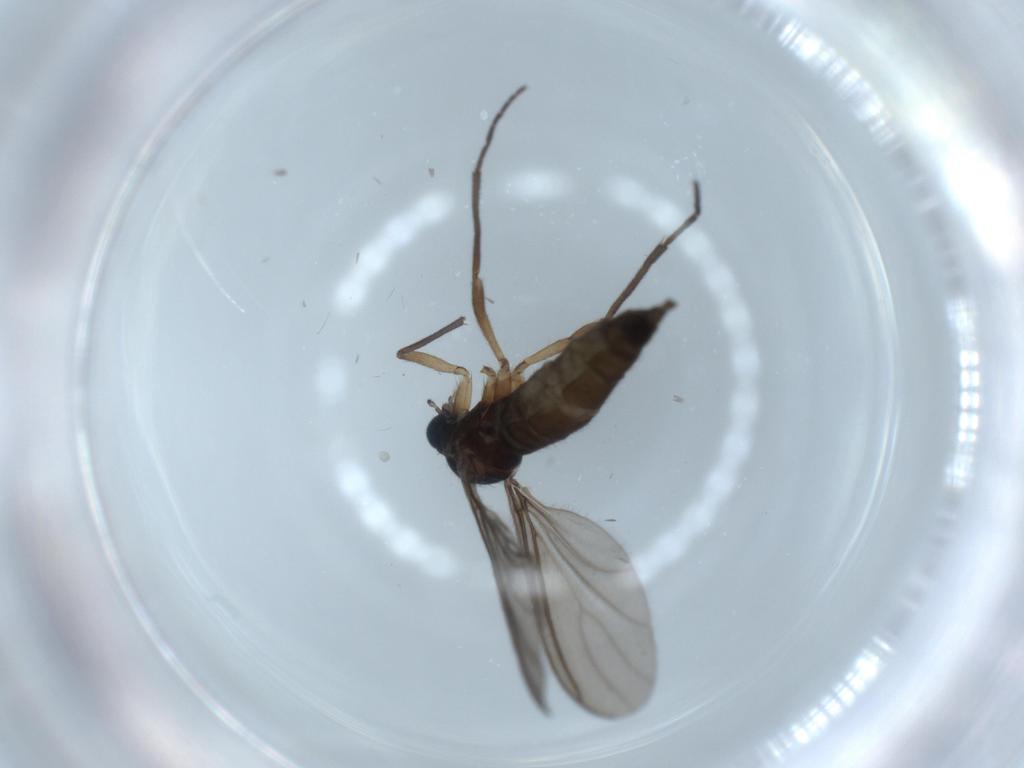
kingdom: Animalia
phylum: Arthropoda
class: Insecta
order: Diptera
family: Sciaridae
